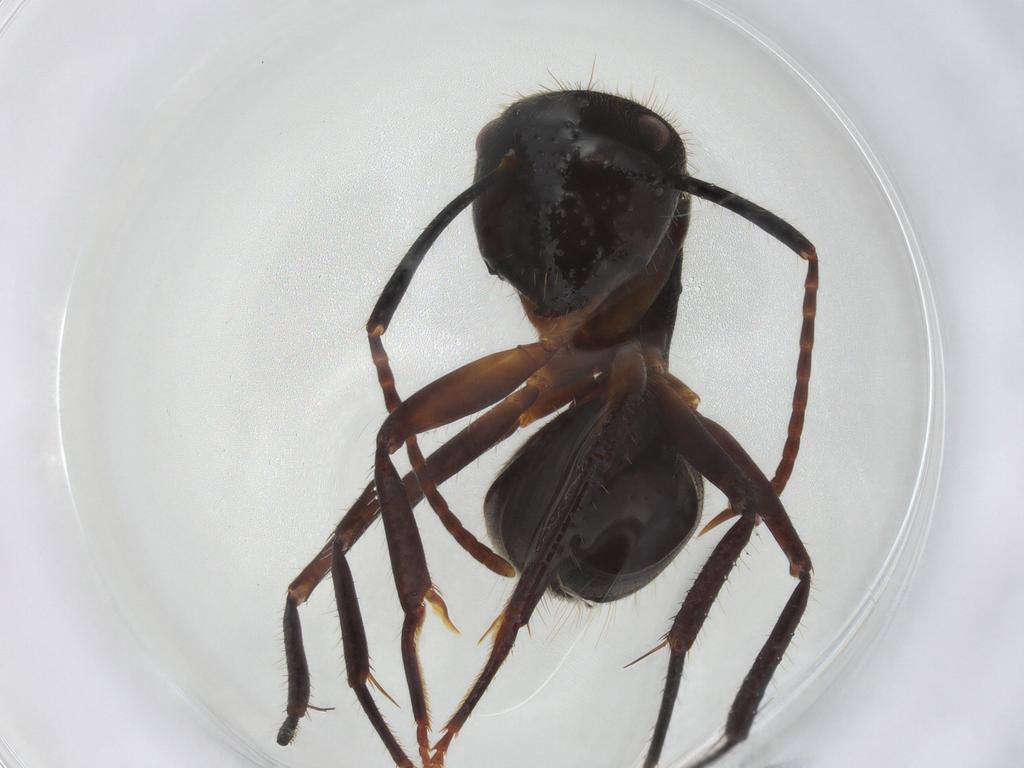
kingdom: Animalia
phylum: Arthropoda
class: Insecta
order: Hymenoptera
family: Formicidae
